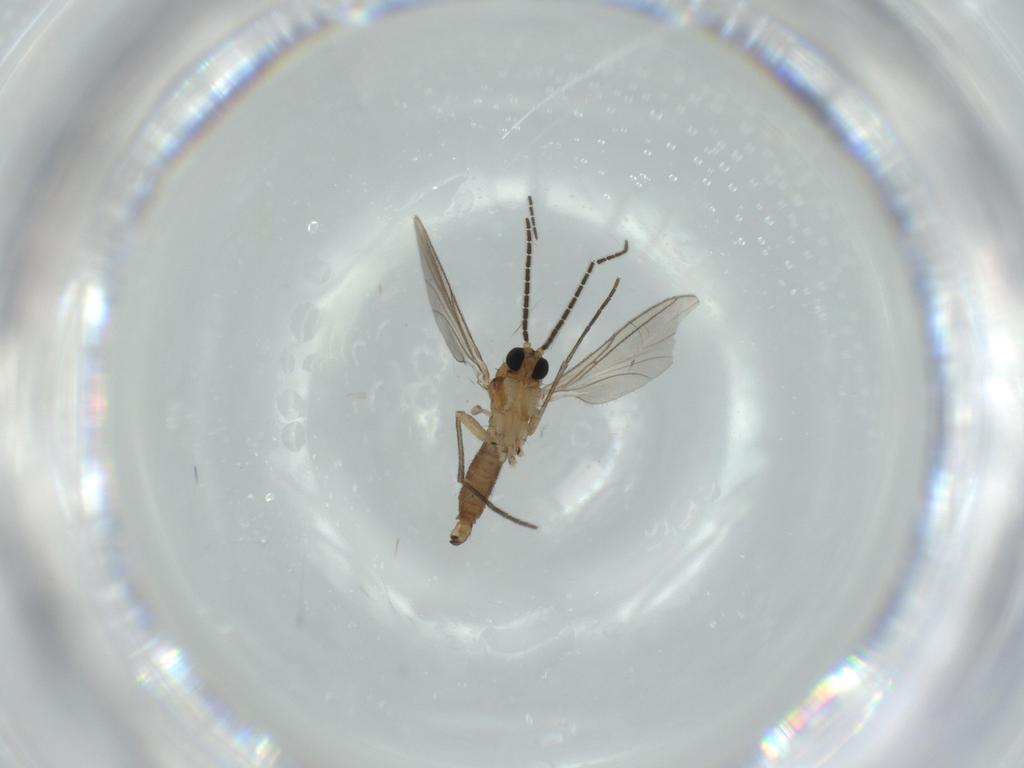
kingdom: Animalia
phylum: Arthropoda
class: Insecta
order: Diptera
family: Sciaridae
